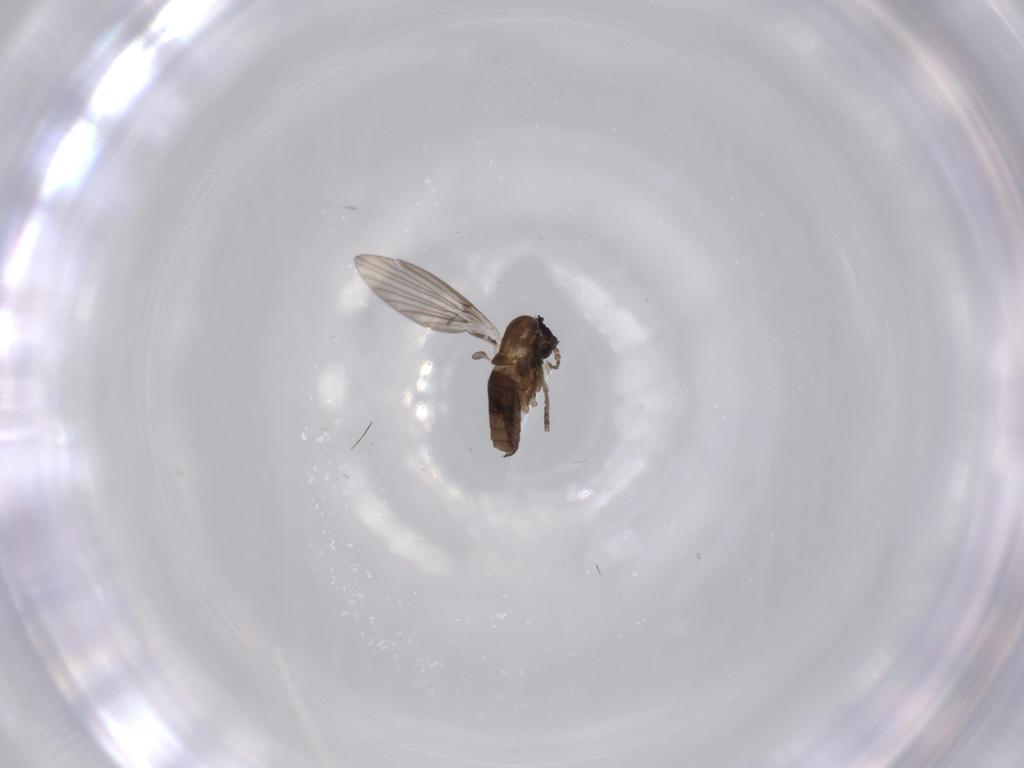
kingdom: Animalia
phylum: Arthropoda
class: Insecta
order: Diptera
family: Psychodidae
